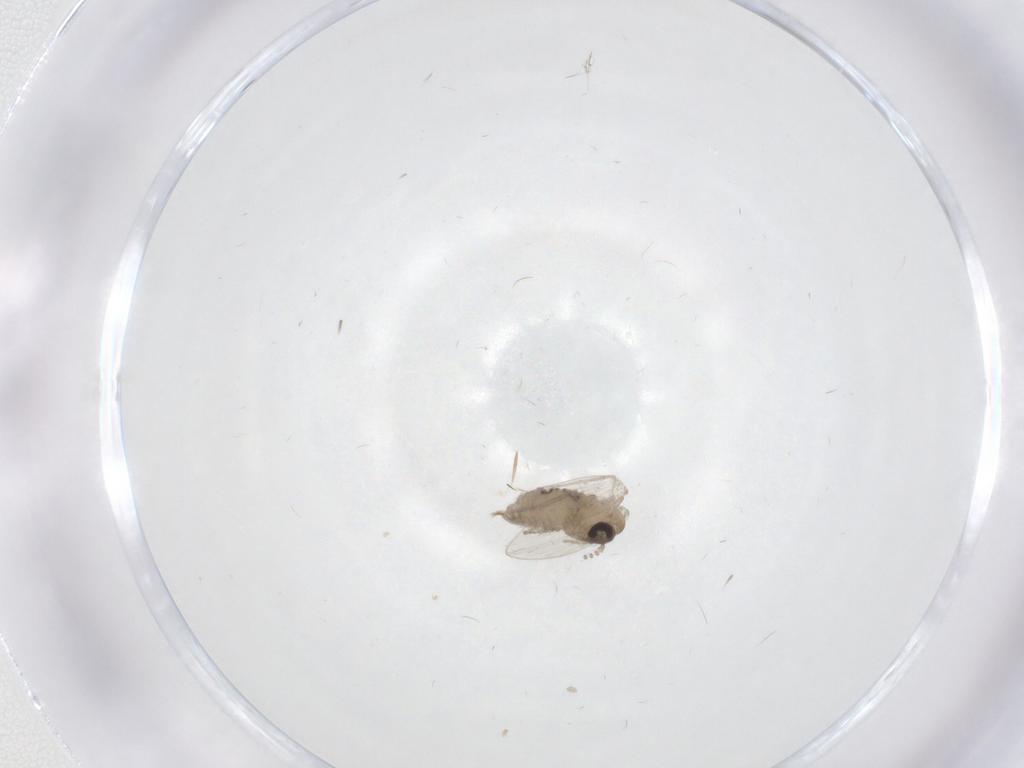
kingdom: Animalia
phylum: Arthropoda
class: Insecta
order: Diptera
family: Psychodidae
